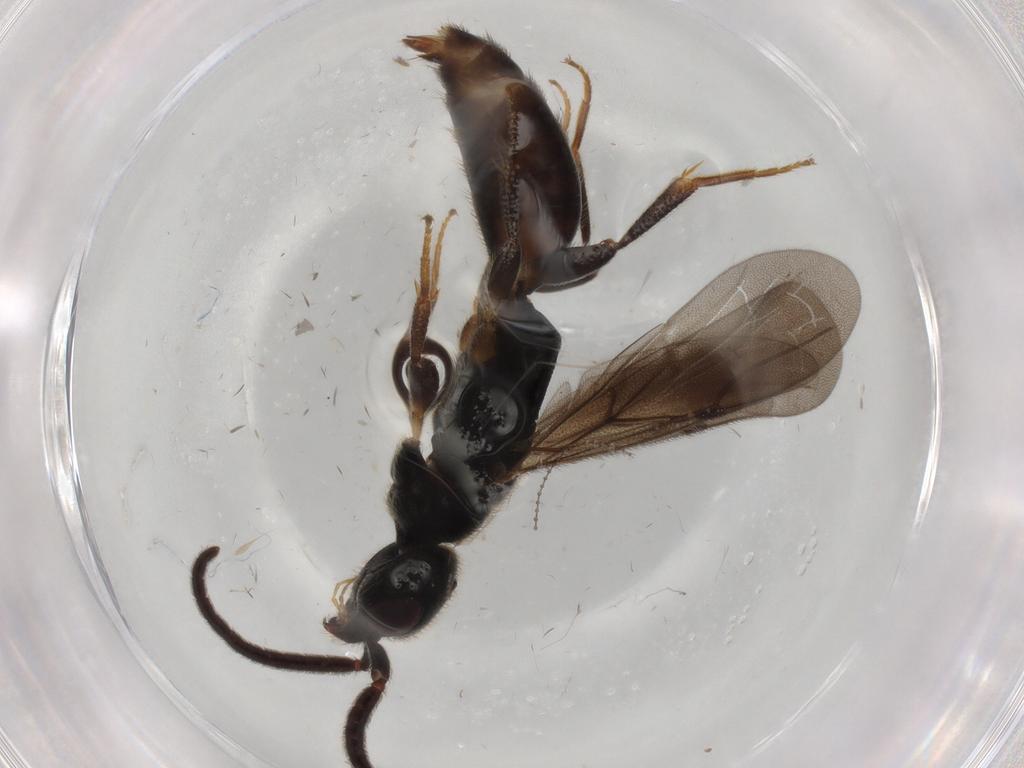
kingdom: Animalia
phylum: Arthropoda
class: Insecta
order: Hymenoptera
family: Bethylidae
